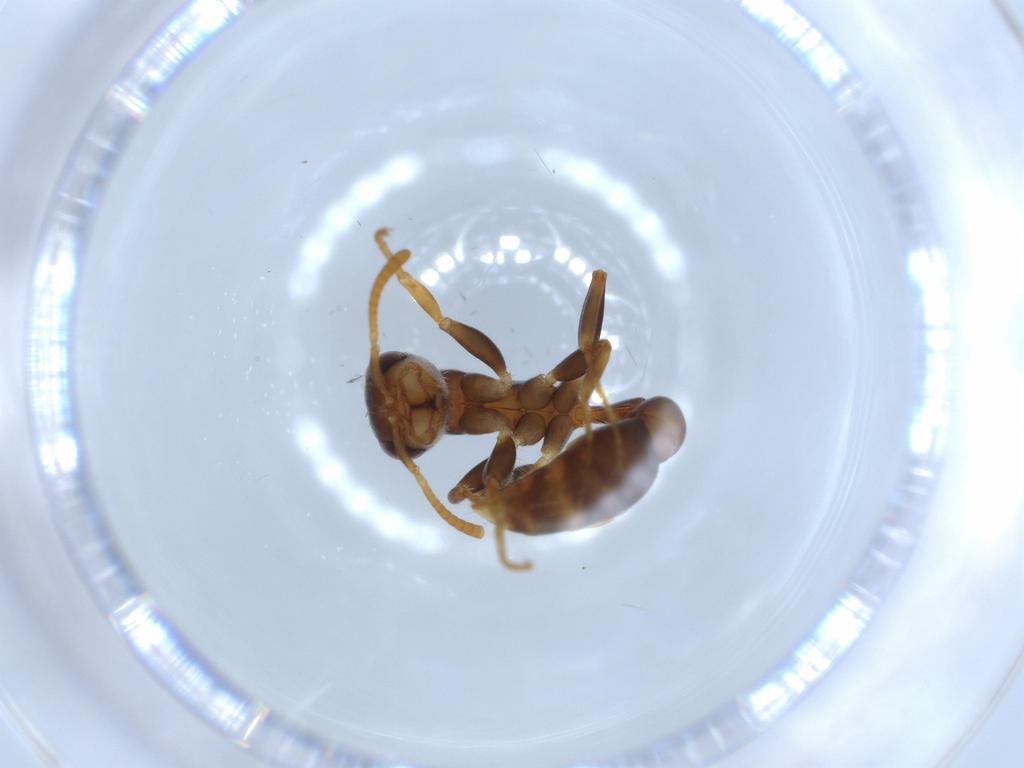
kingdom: Animalia
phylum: Arthropoda
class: Insecta
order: Hymenoptera
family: Formicidae
